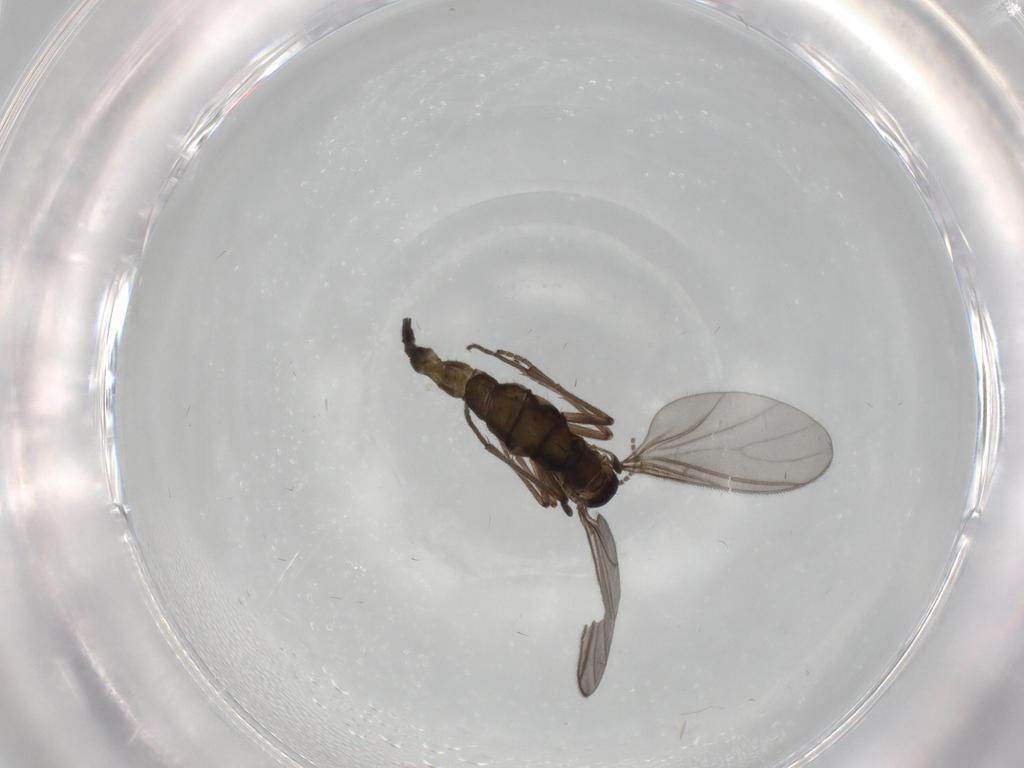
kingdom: Animalia
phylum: Arthropoda
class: Insecta
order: Diptera
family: Sciaridae
